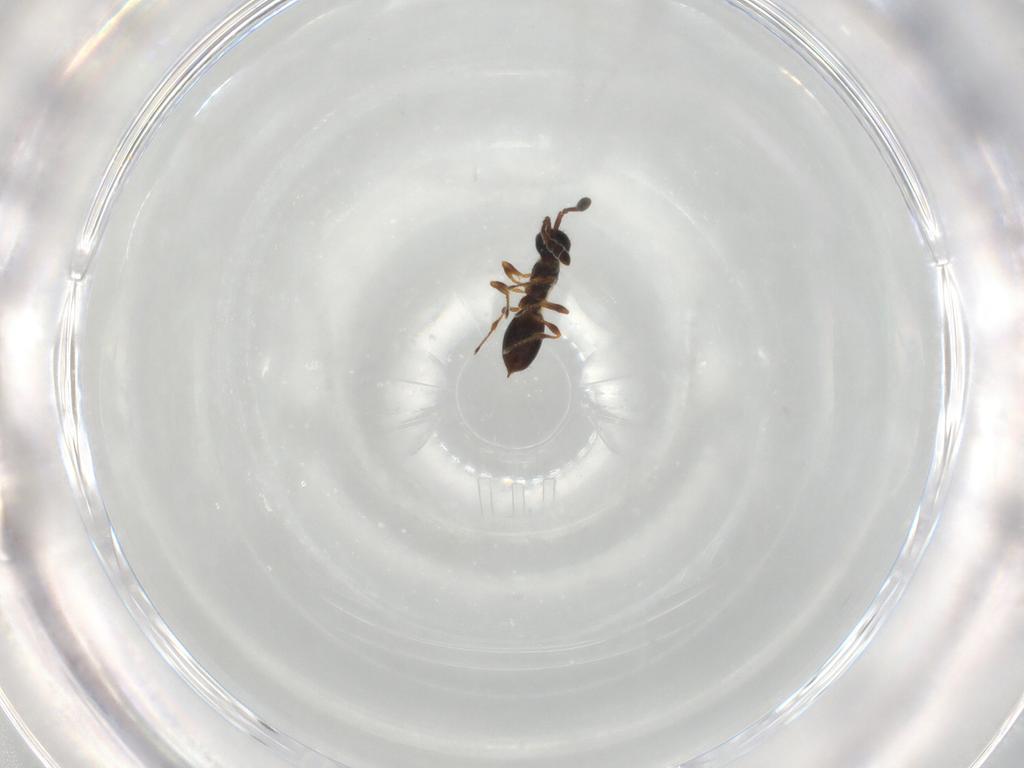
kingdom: Animalia
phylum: Arthropoda
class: Insecta
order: Hymenoptera
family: Diapriidae
